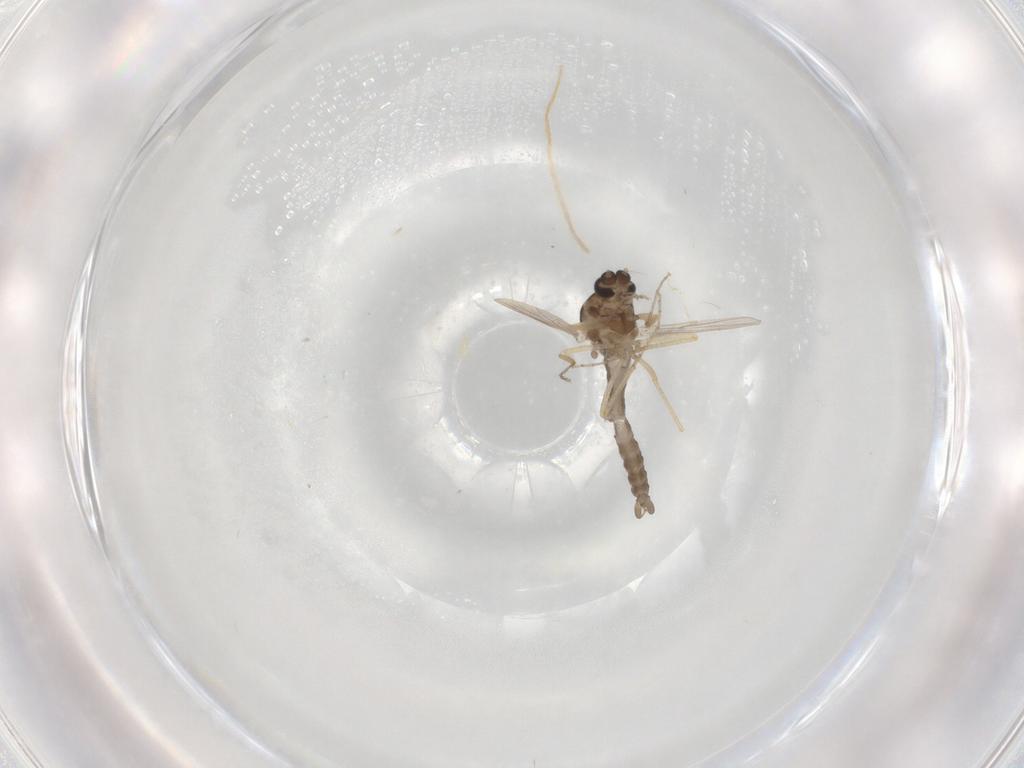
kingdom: Animalia
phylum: Arthropoda
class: Insecta
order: Diptera
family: Ceratopogonidae
